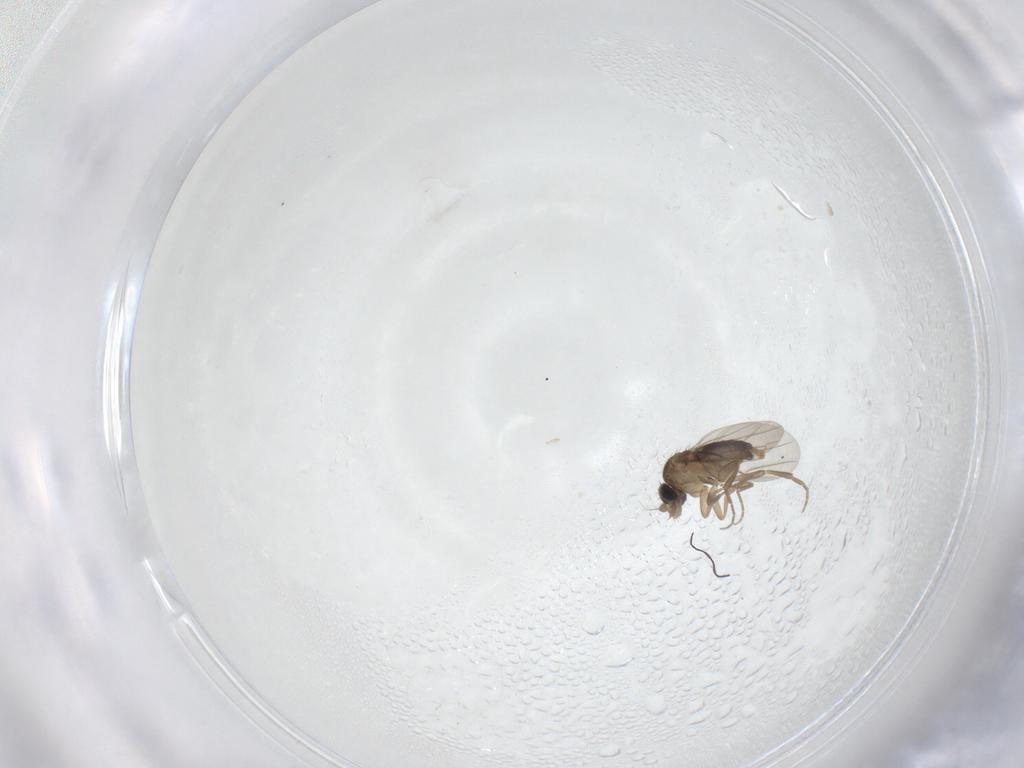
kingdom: Animalia
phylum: Arthropoda
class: Insecta
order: Diptera
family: Phoridae
